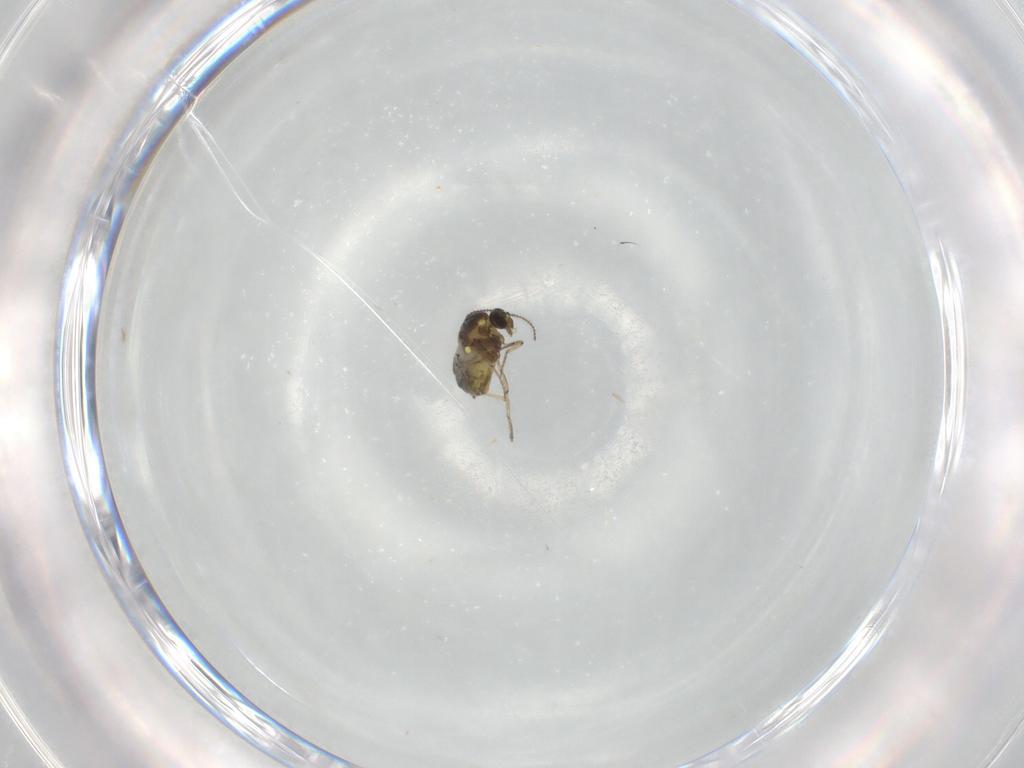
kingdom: Animalia
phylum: Arthropoda
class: Insecta
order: Diptera
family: Ceratopogonidae
